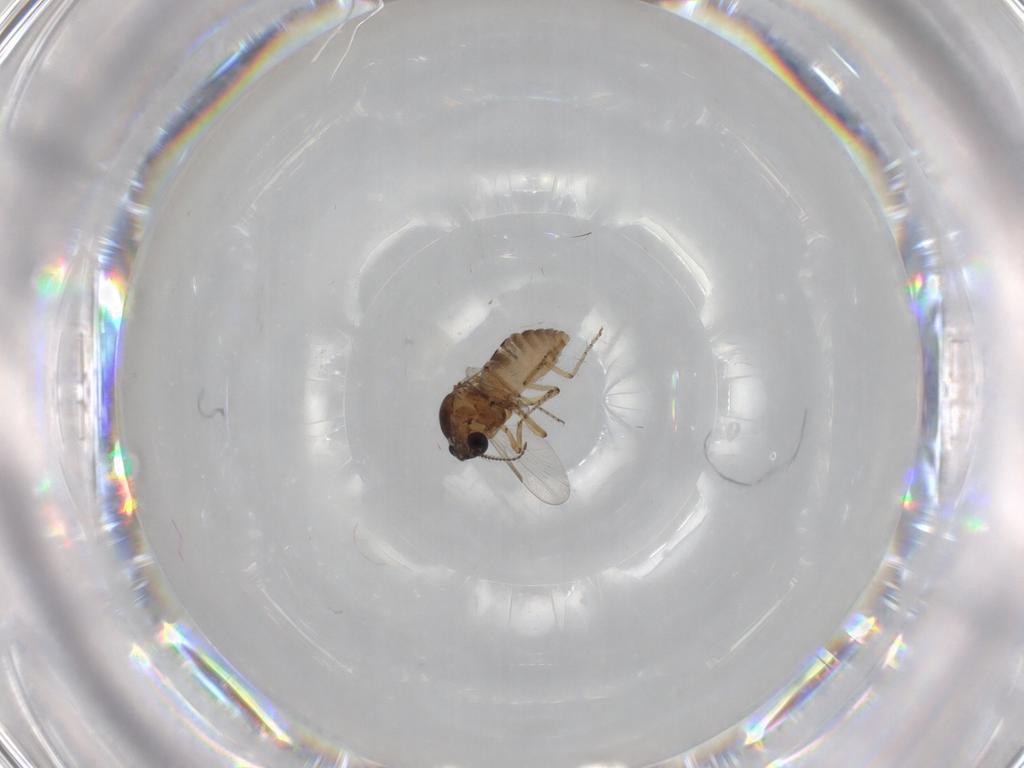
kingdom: Animalia
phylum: Arthropoda
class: Insecta
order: Diptera
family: Ceratopogonidae
